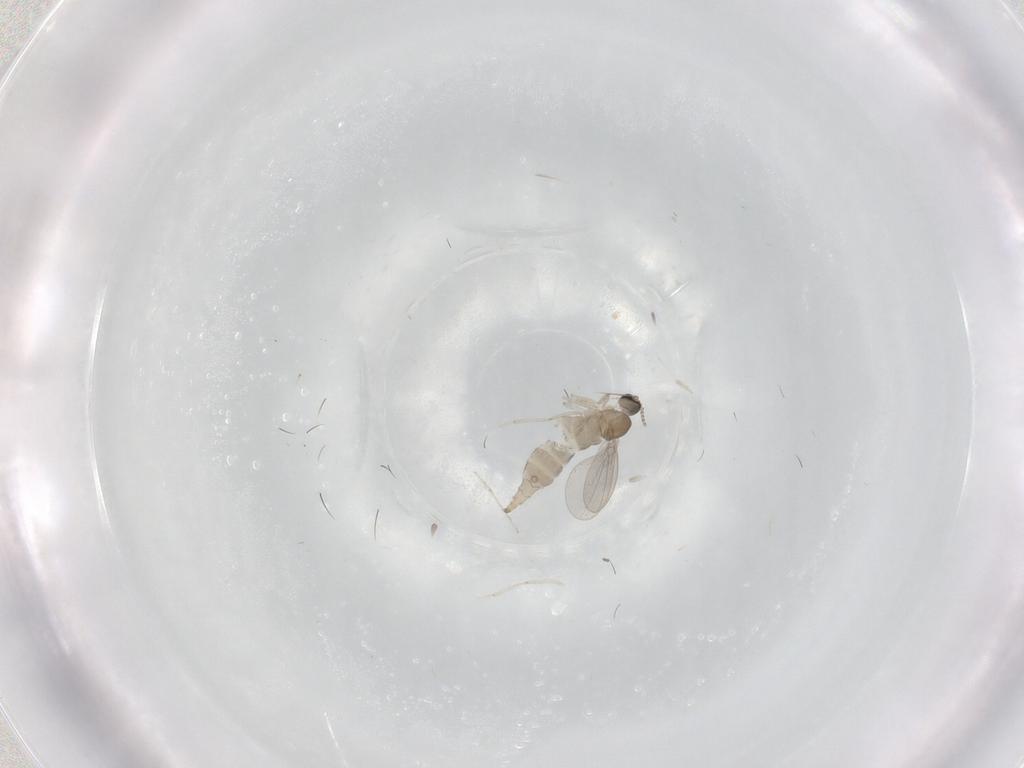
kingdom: Animalia
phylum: Arthropoda
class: Insecta
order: Diptera
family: Cecidomyiidae
